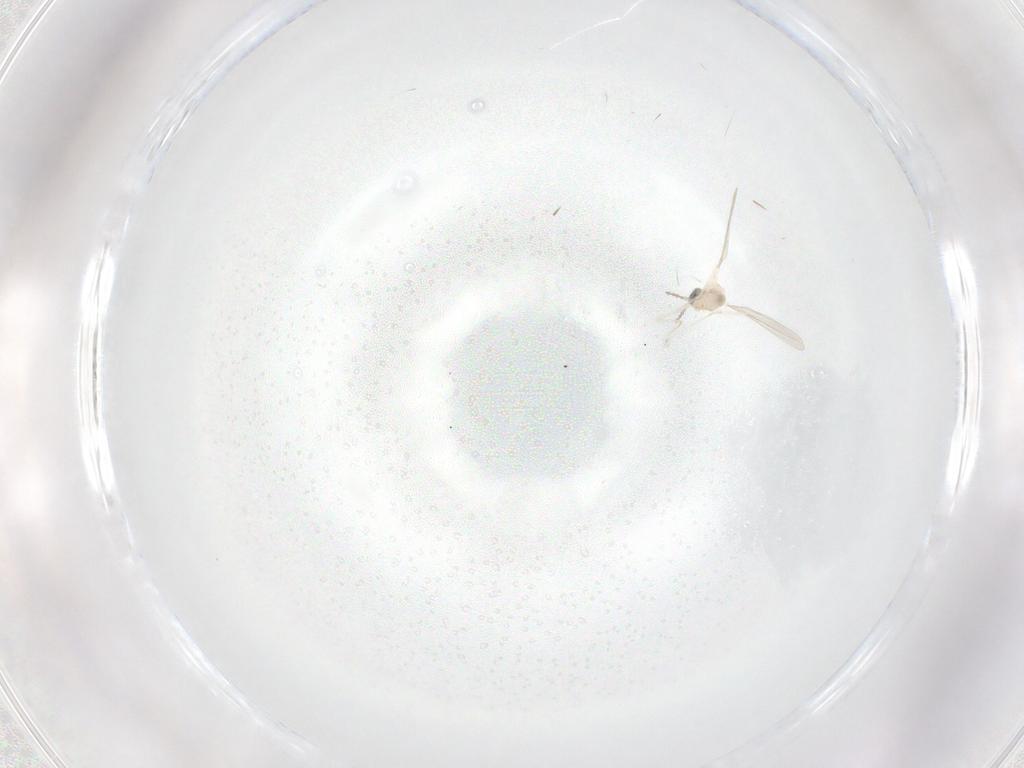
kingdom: Animalia
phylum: Arthropoda
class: Insecta
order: Diptera
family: Cecidomyiidae
